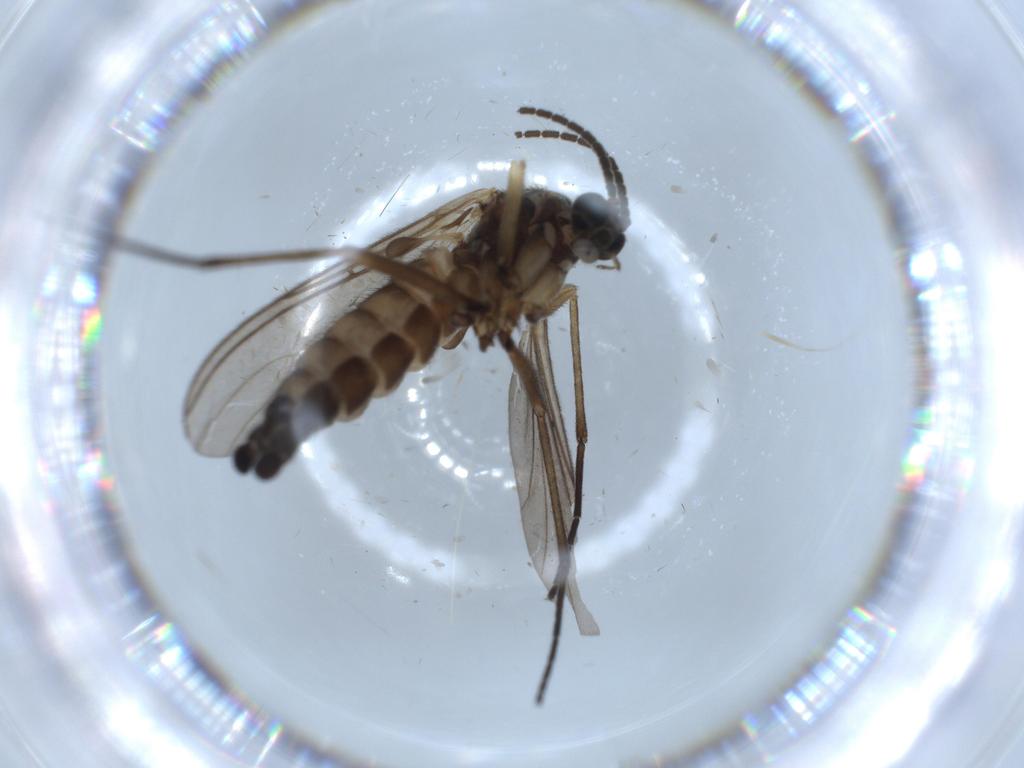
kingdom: Animalia
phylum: Arthropoda
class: Insecta
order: Diptera
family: Sciaridae
